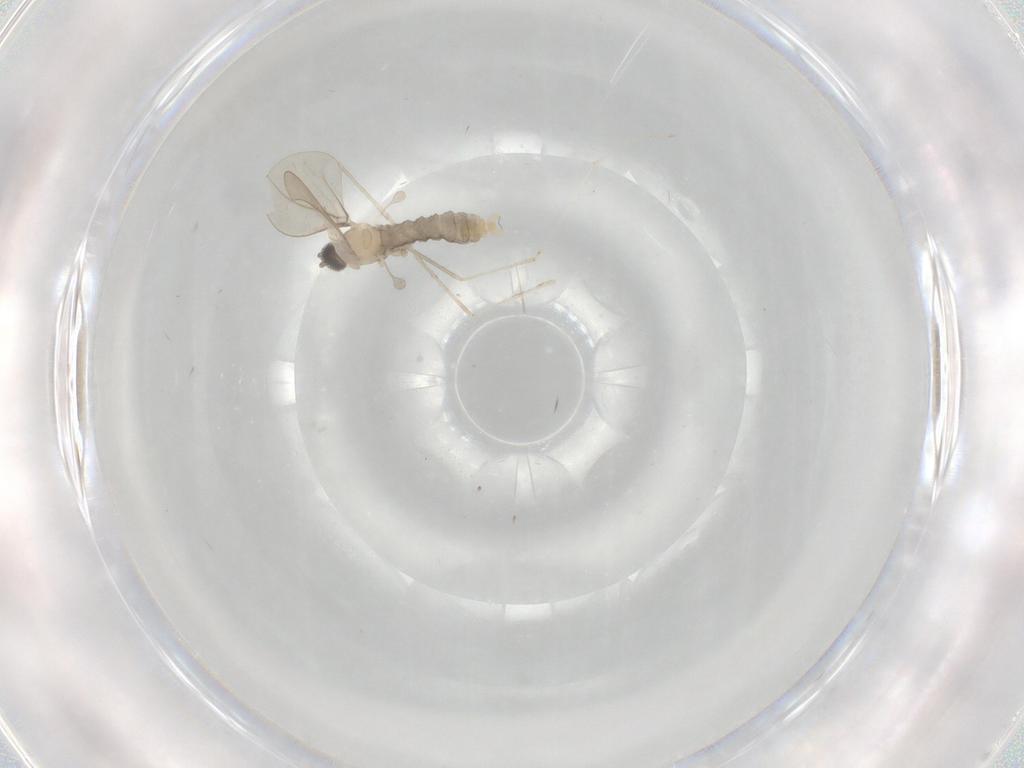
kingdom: Animalia
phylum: Arthropoda
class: Insecta
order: Diptera
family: Cecidomyiidae
